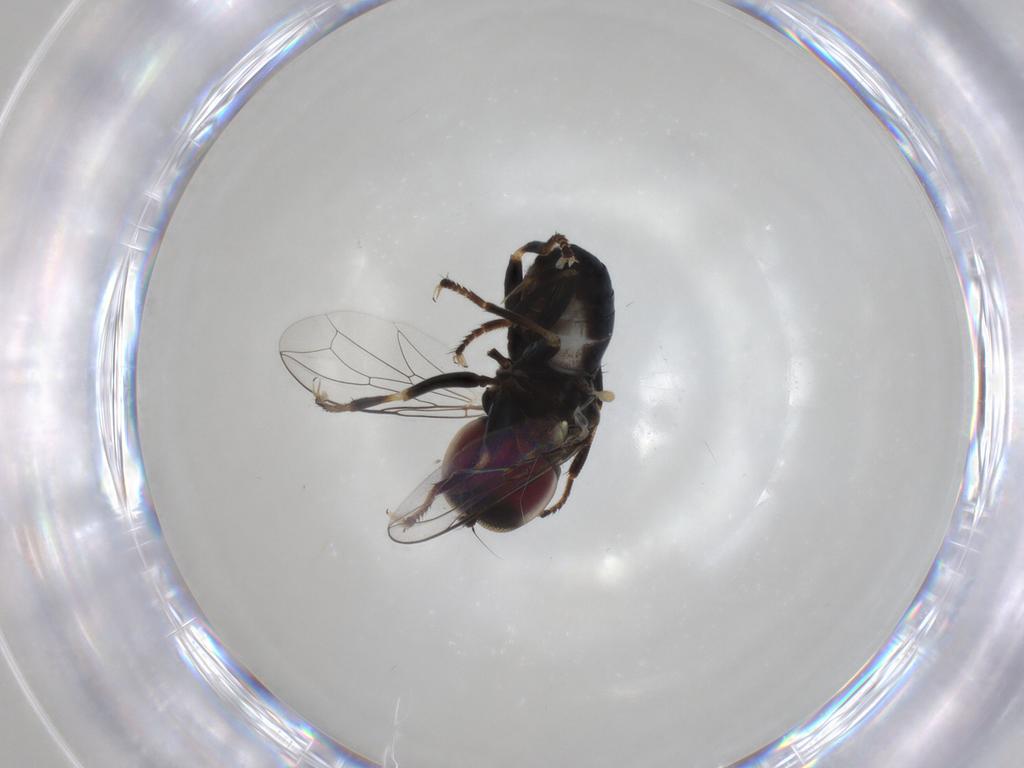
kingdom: Animalia
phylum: Arthropoda
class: Insecta
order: Diptera
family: Pipunculidae
